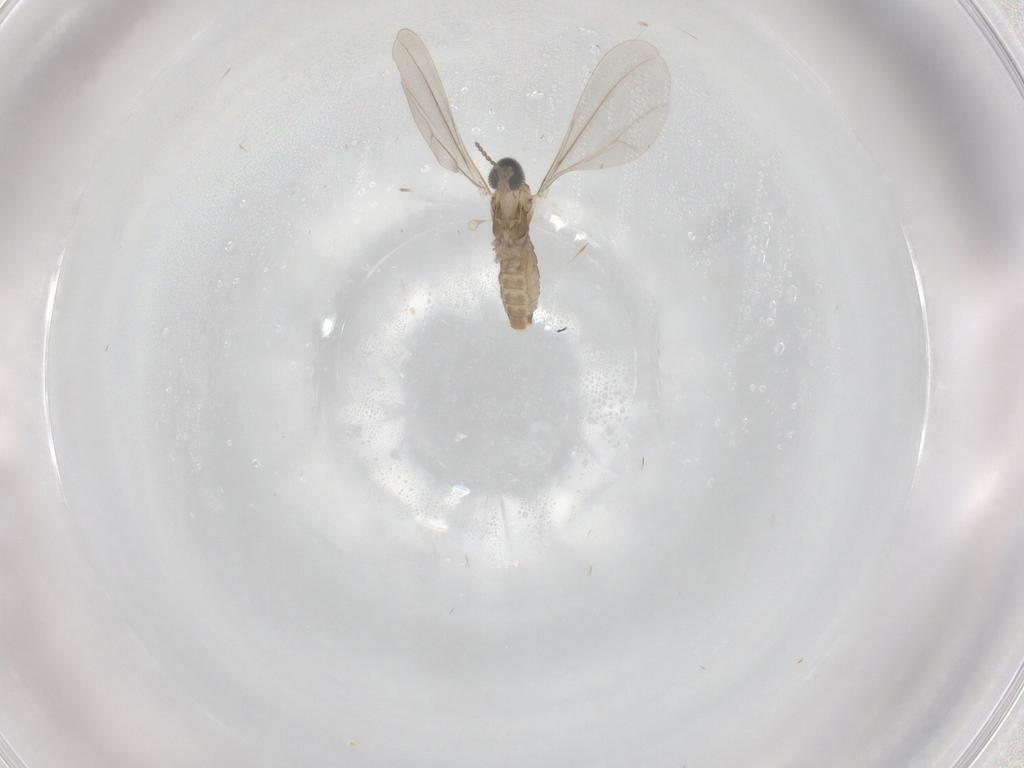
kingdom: Animalia
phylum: Arthropoda
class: Insecta
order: Diptera
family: Cecidomyiidae
